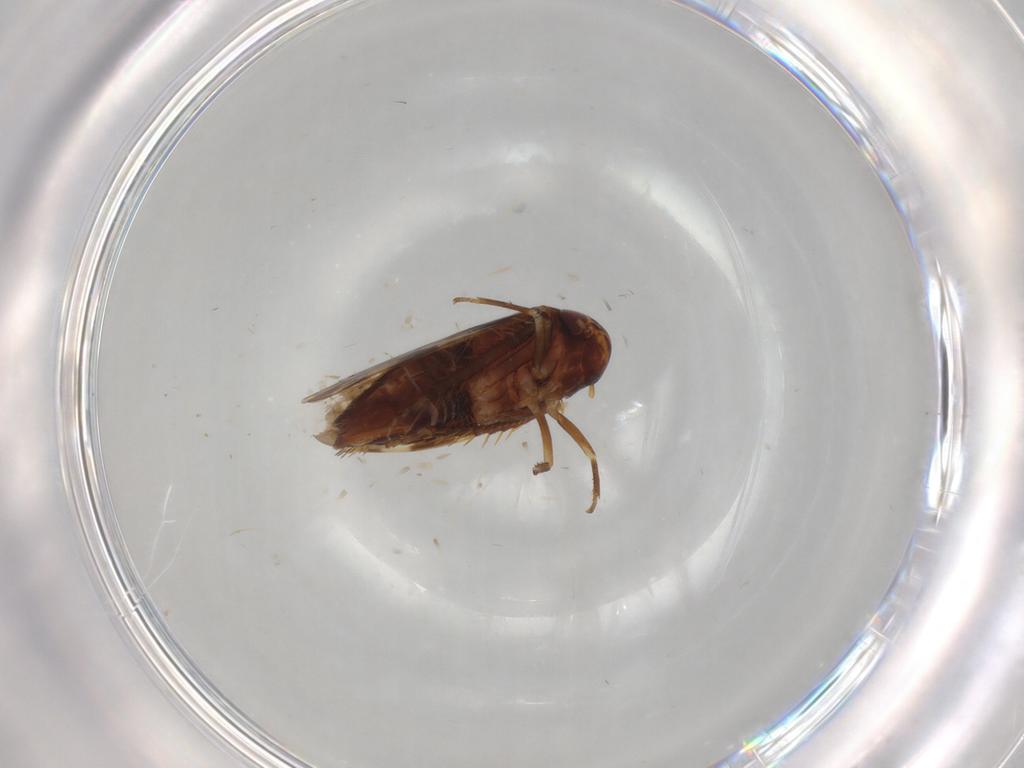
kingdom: Animalia
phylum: Arthropoda
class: Insecta
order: Hemiptera
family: Cicadellidae
